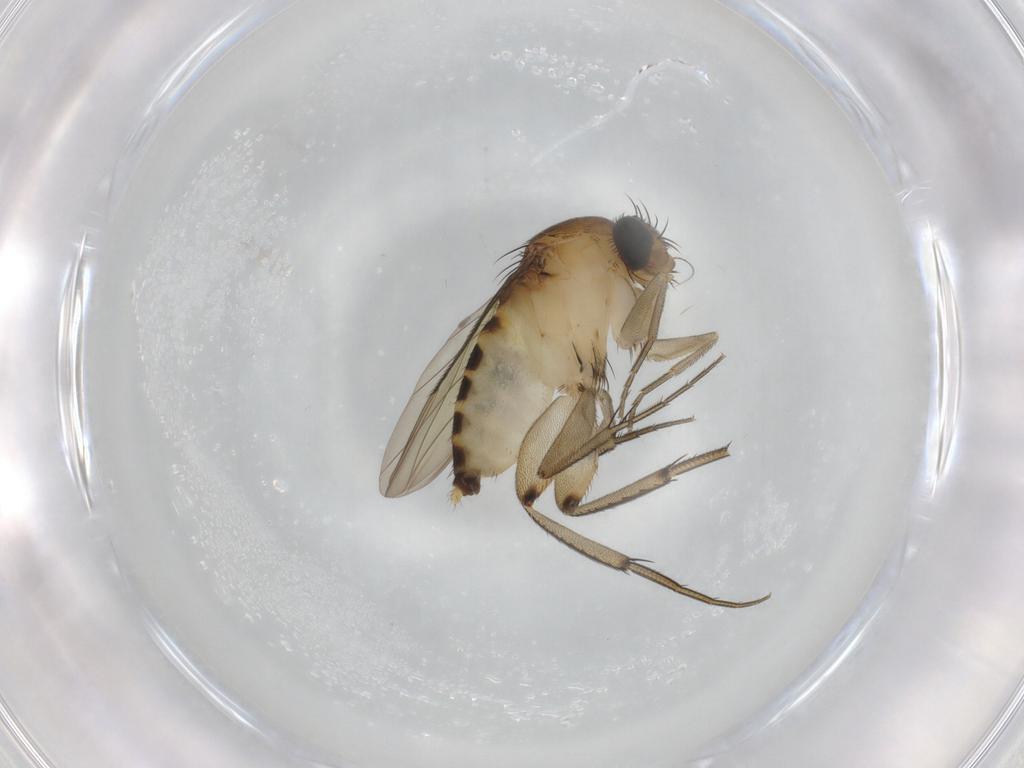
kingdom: Animalia
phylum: Arthropoda
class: Insecta
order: Diptera
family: Phoridae
